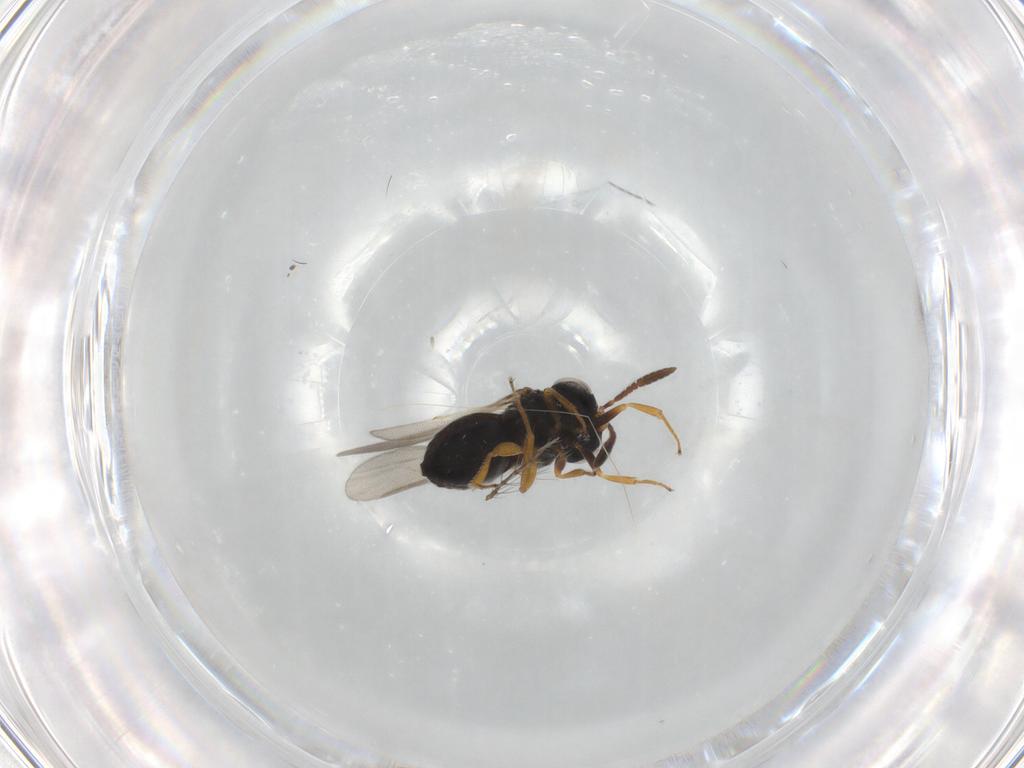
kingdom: Animalia
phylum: Arthropoda
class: Insecta
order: Hymenoptera
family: Scelionidae
